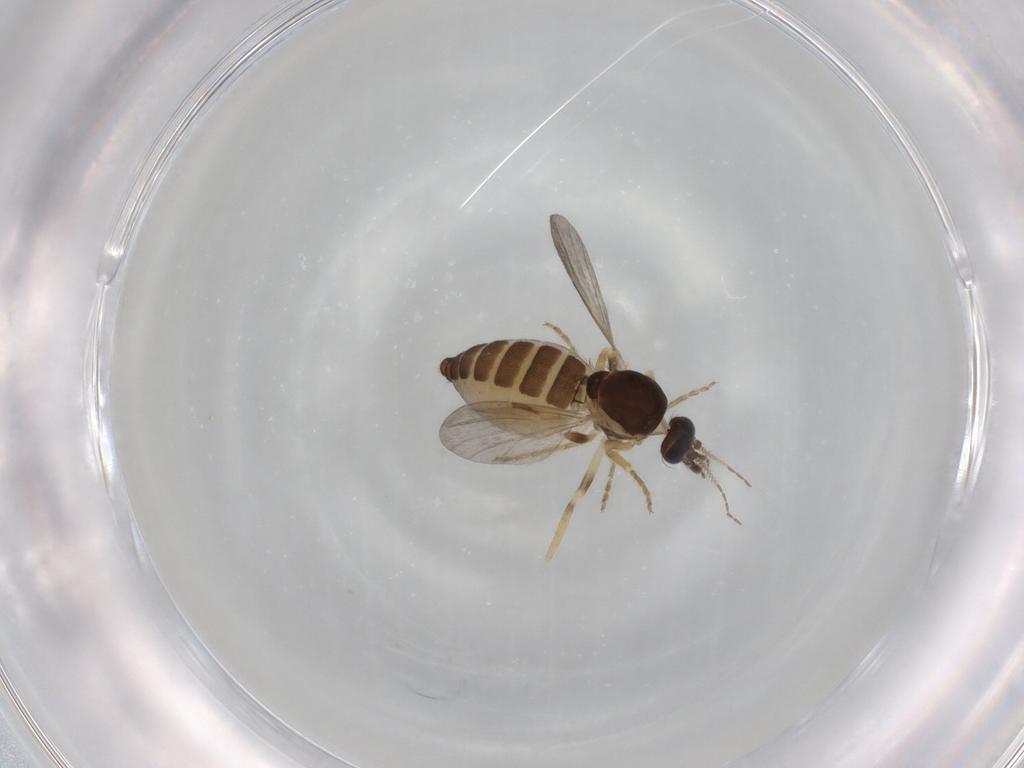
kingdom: Animalia
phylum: Arthropoda
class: Insecta
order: Diptera
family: Ceratopogonidae
